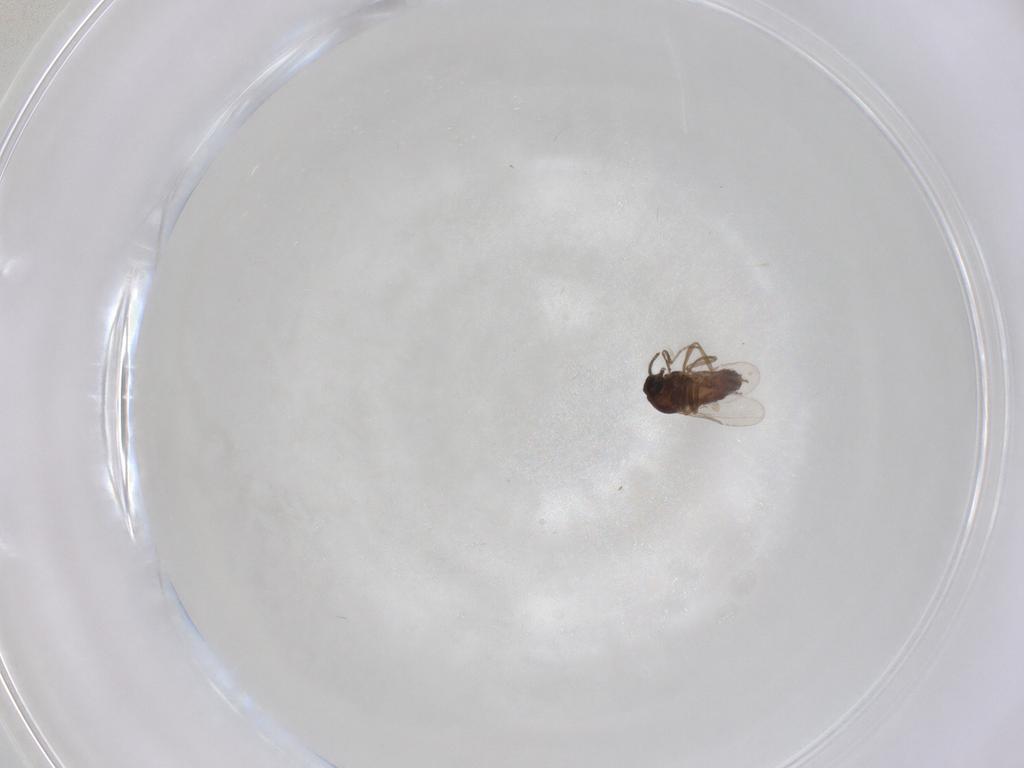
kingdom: Animalia
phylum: Arthropoda
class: Insecta
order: Diptera
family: Ceratopogonidae
